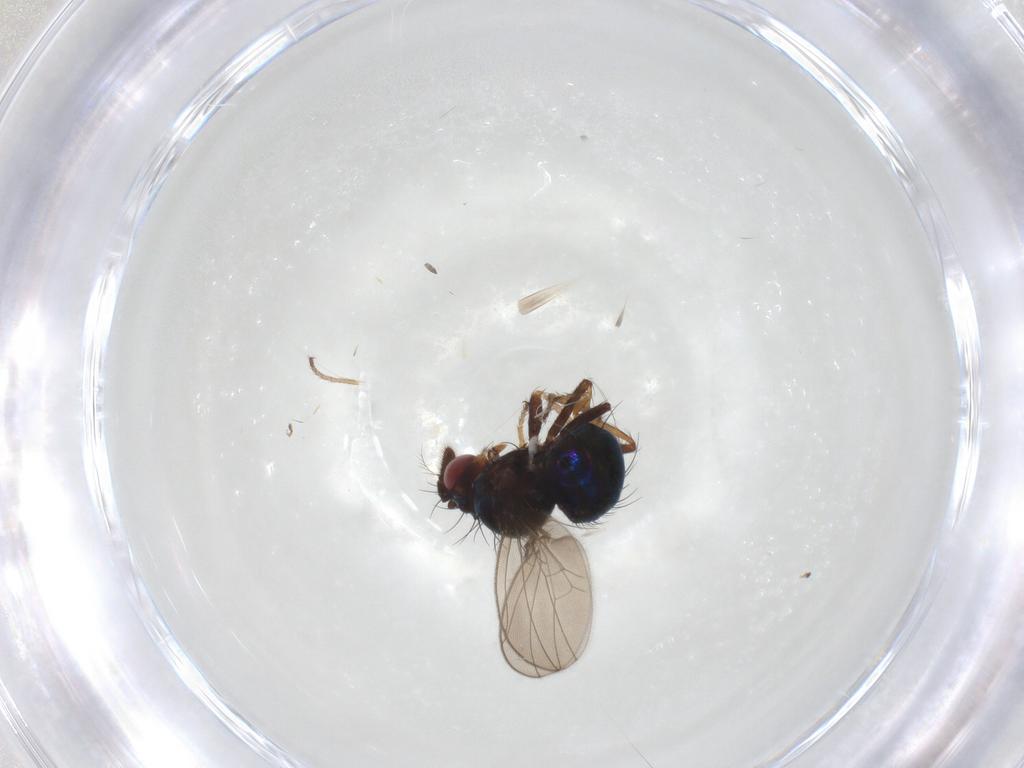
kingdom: Animalia
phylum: Arthropoda
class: Insecta
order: Diptera
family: Ephydridae
